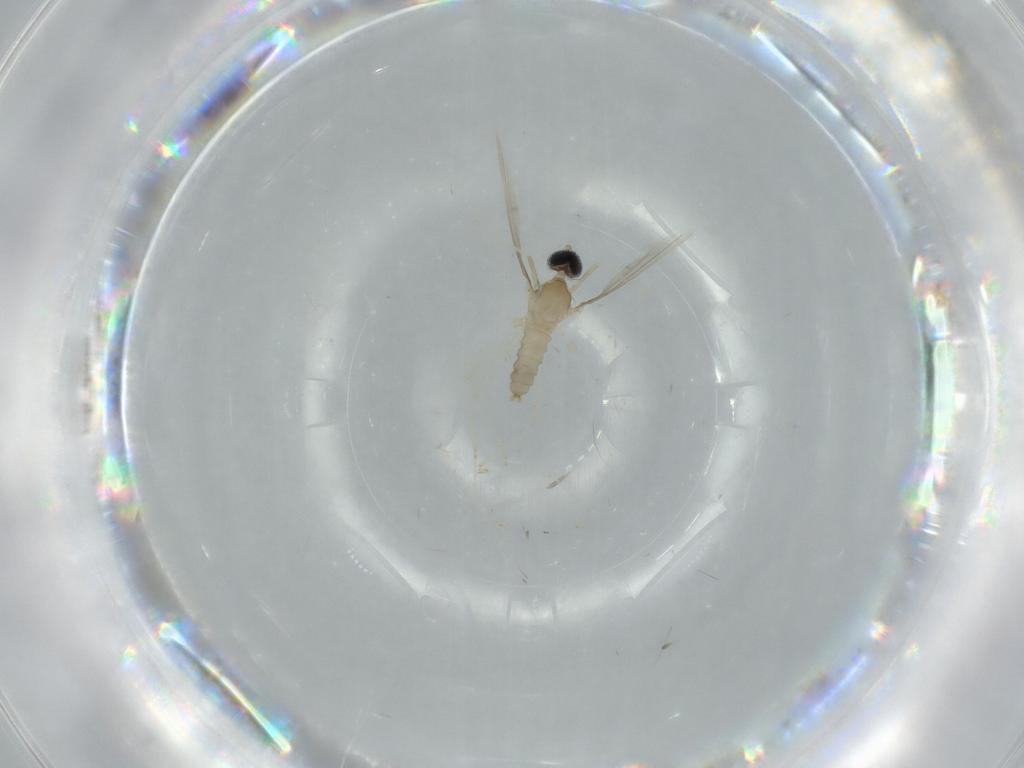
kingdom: Animalia
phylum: Arthropoda
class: Insecta
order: Diptera
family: Cecidomyiidae
